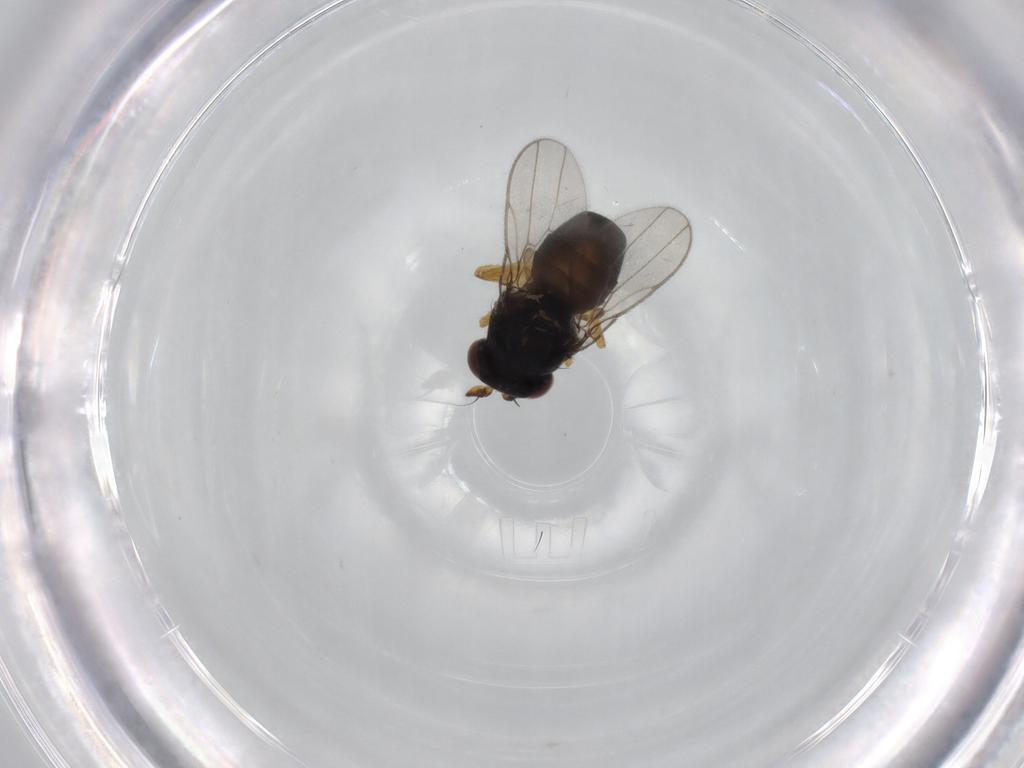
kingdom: Animalia
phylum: Arthropoda
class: Insecta
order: Diptera
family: Ephydridae
